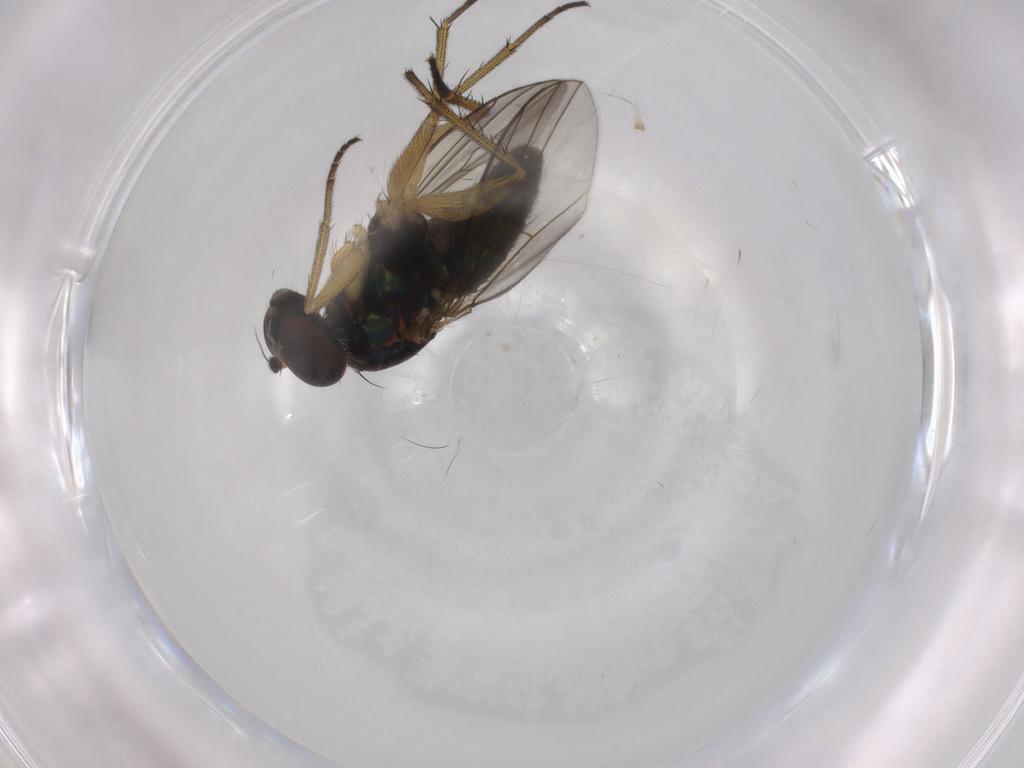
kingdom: Animalia
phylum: Arthropoda
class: Insecta
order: Diptera
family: Dolichopodidae
